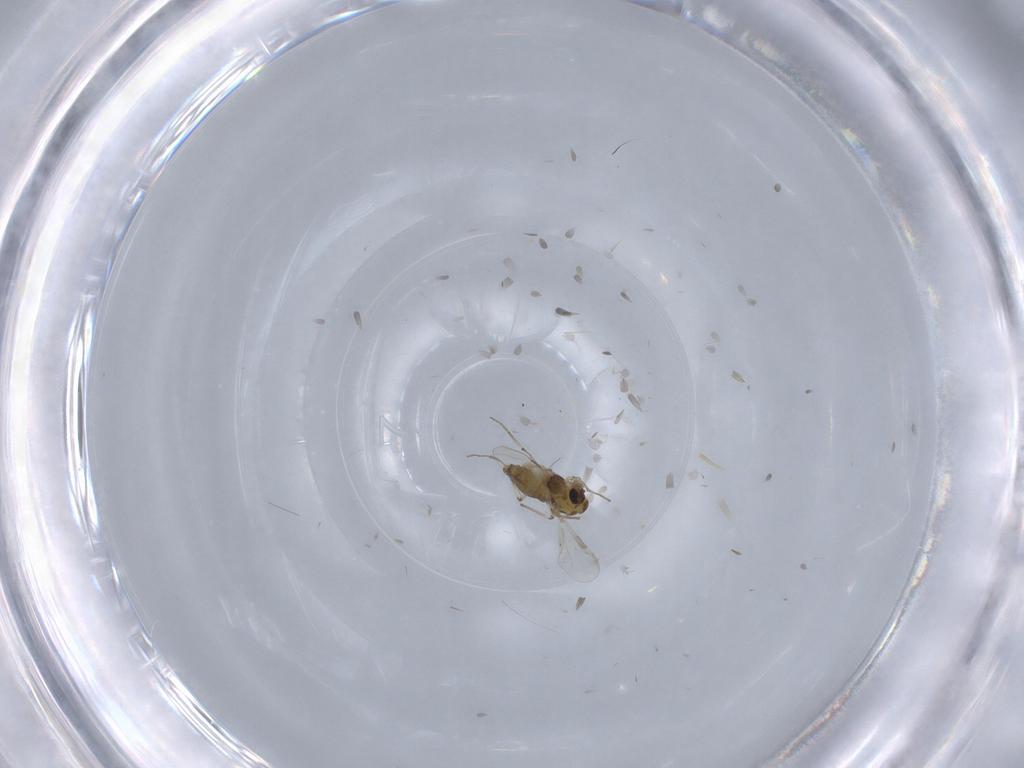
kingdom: Animalia
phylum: Arthropoda
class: Insecta
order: Diptera
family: Chironomidae
